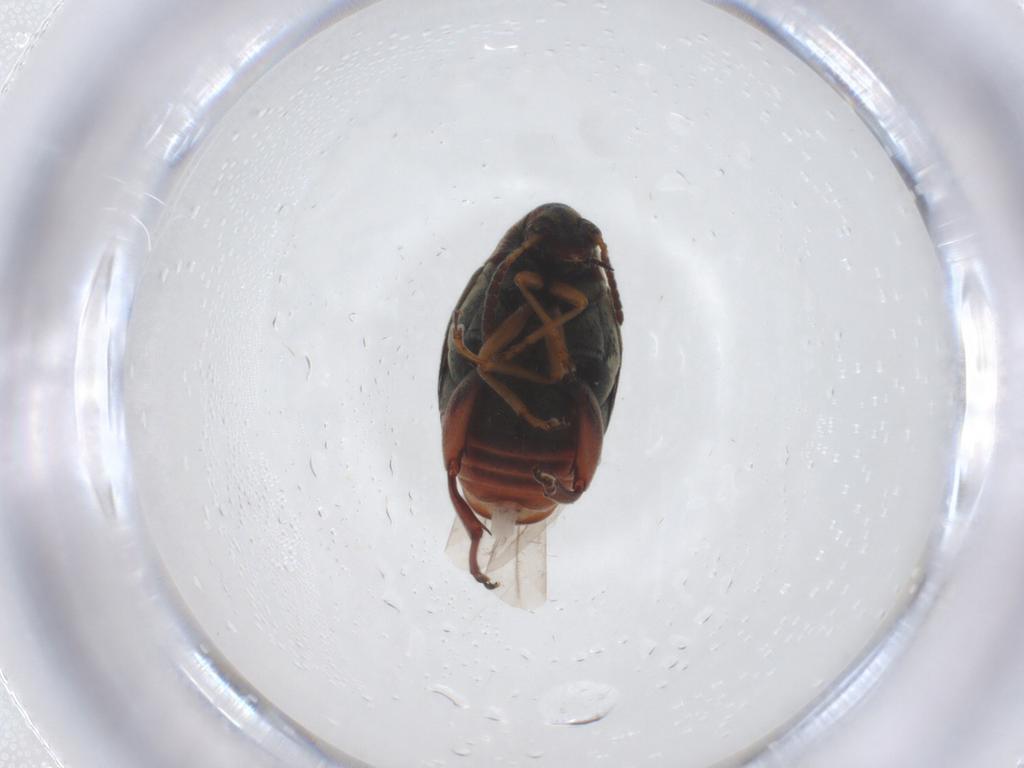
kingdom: Animalia
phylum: Arthropoda
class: Insecta
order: Coleoptera
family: Chrysomelidae
